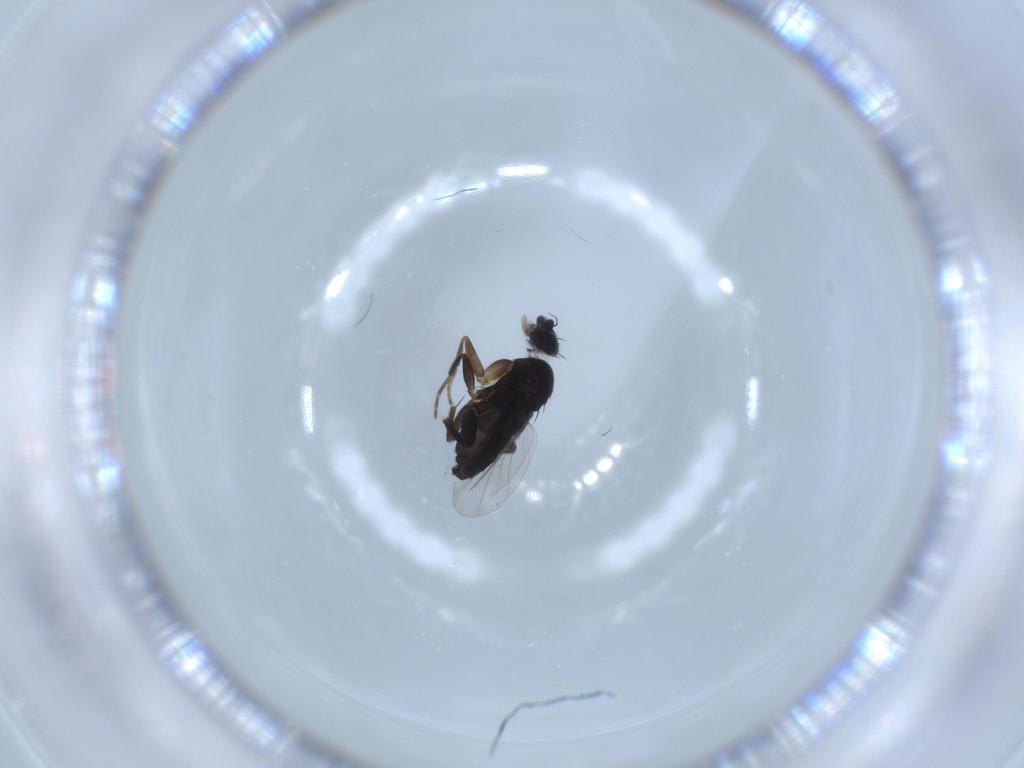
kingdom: Animalia
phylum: Arthropoda
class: Insecta
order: Diptera
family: Phoridae
